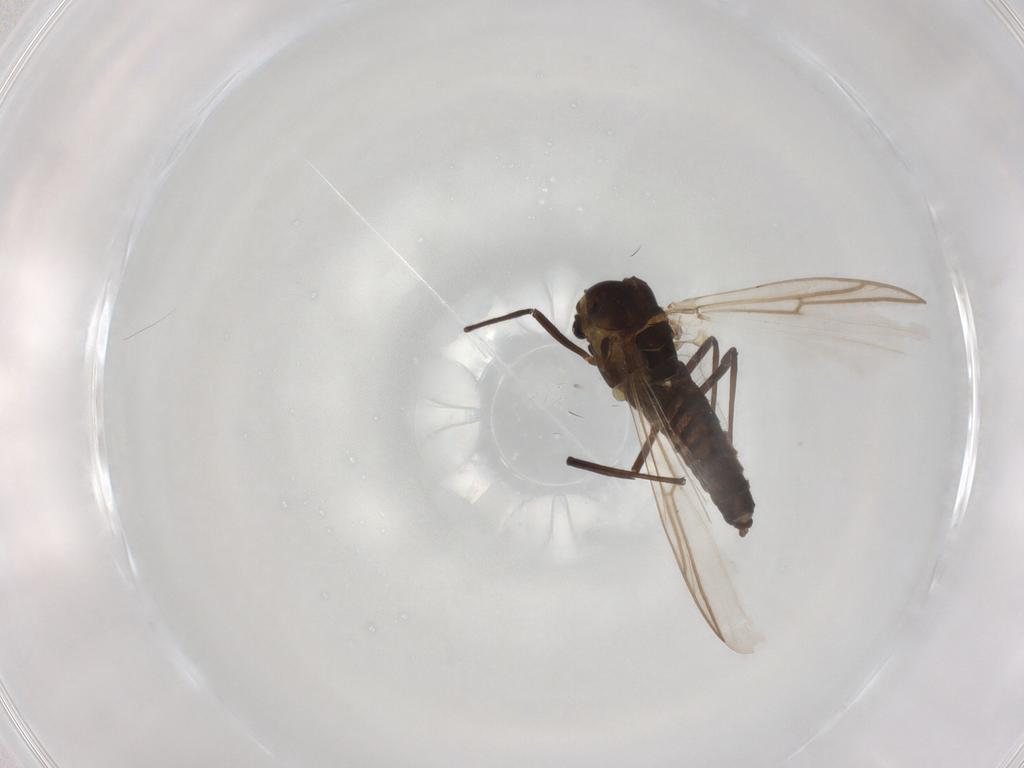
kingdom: Animalia
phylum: Arthropoda
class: Insecta
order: Diptera
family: Chironomidae
